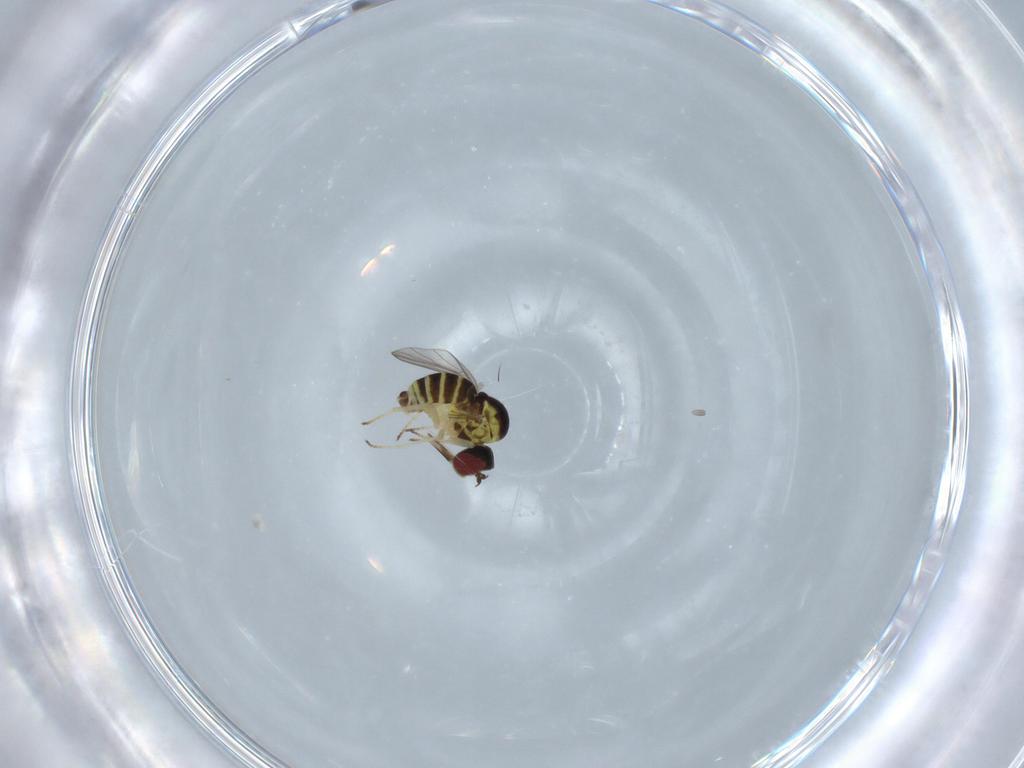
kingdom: Animalia
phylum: Arthropoda
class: Insecta
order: Diptera
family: Bombyliidae
